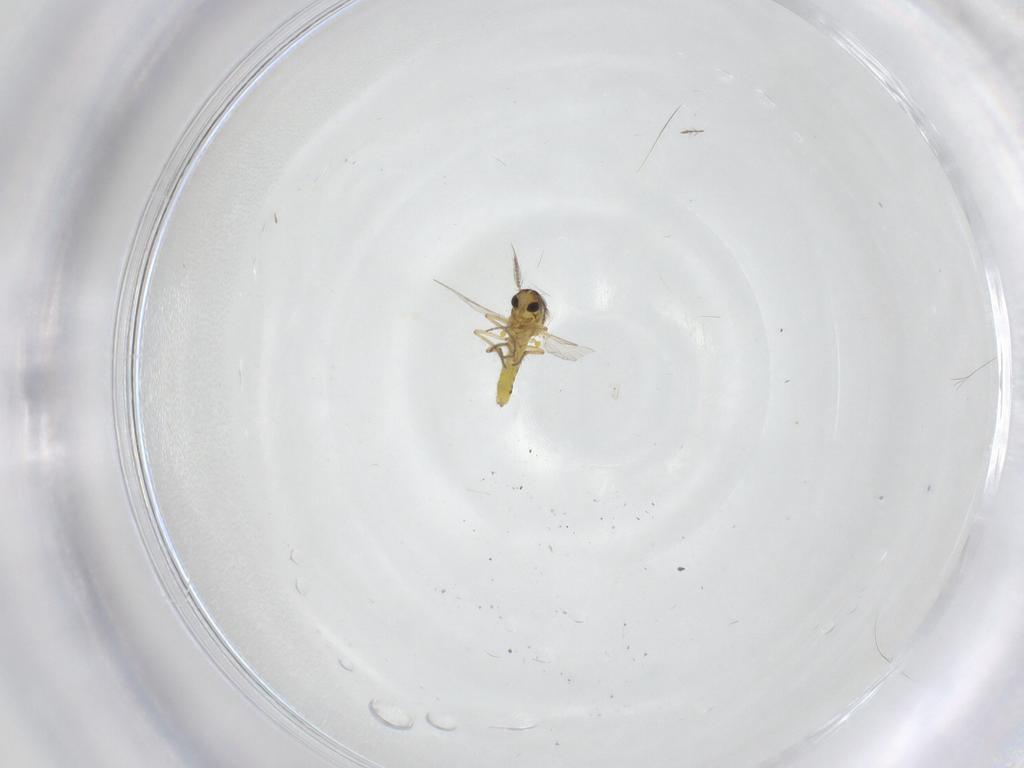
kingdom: Animalia
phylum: Arthropoda
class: Insecta
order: Diptera
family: Ceratopogonidae
